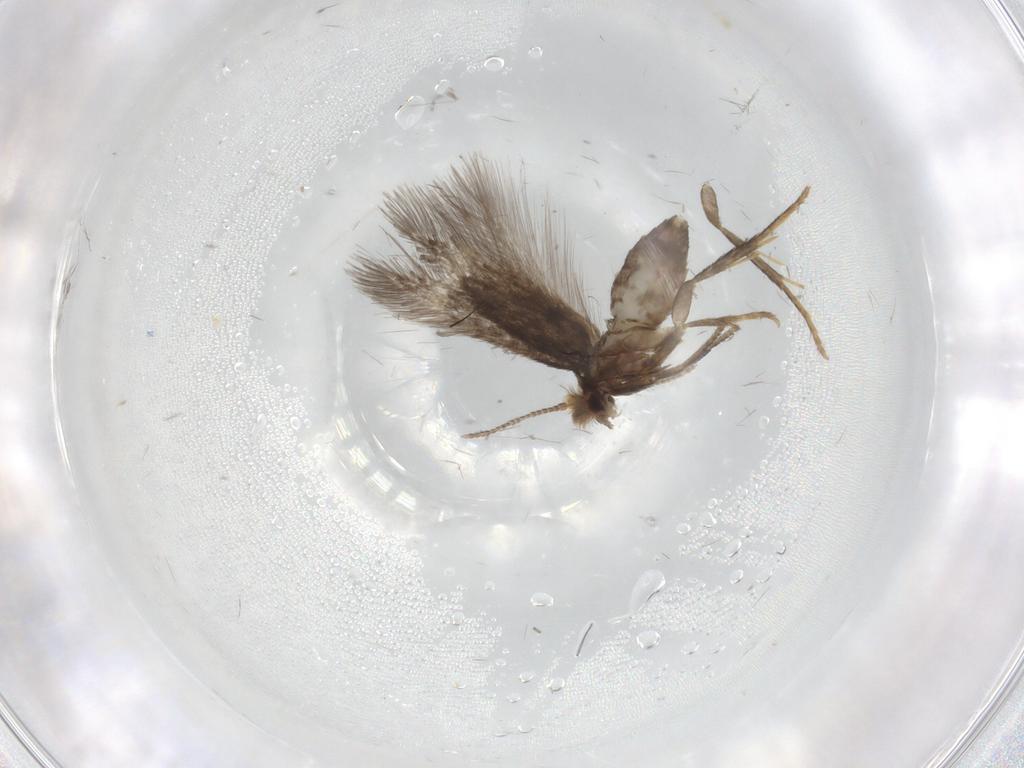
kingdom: Animalia
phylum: Arthropoda
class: Insecta
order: Lepidoptera
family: Nepticulidae
